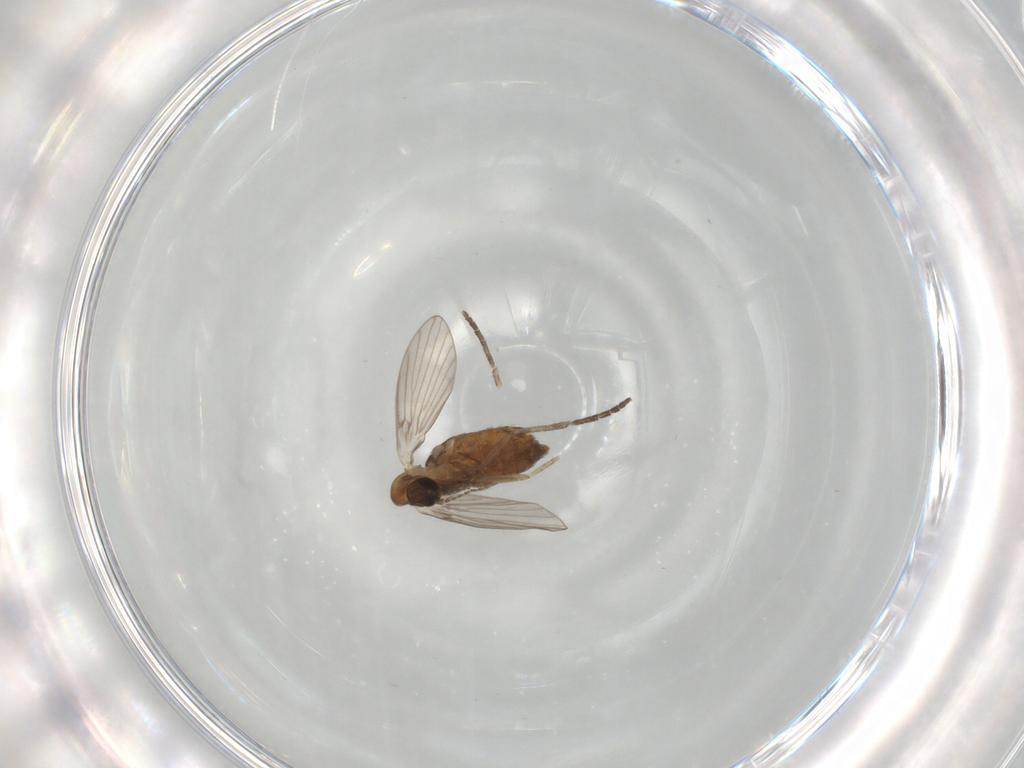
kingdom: Animalia
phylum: Arthropoda
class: Insecta
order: Diptera
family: Psychodidae
